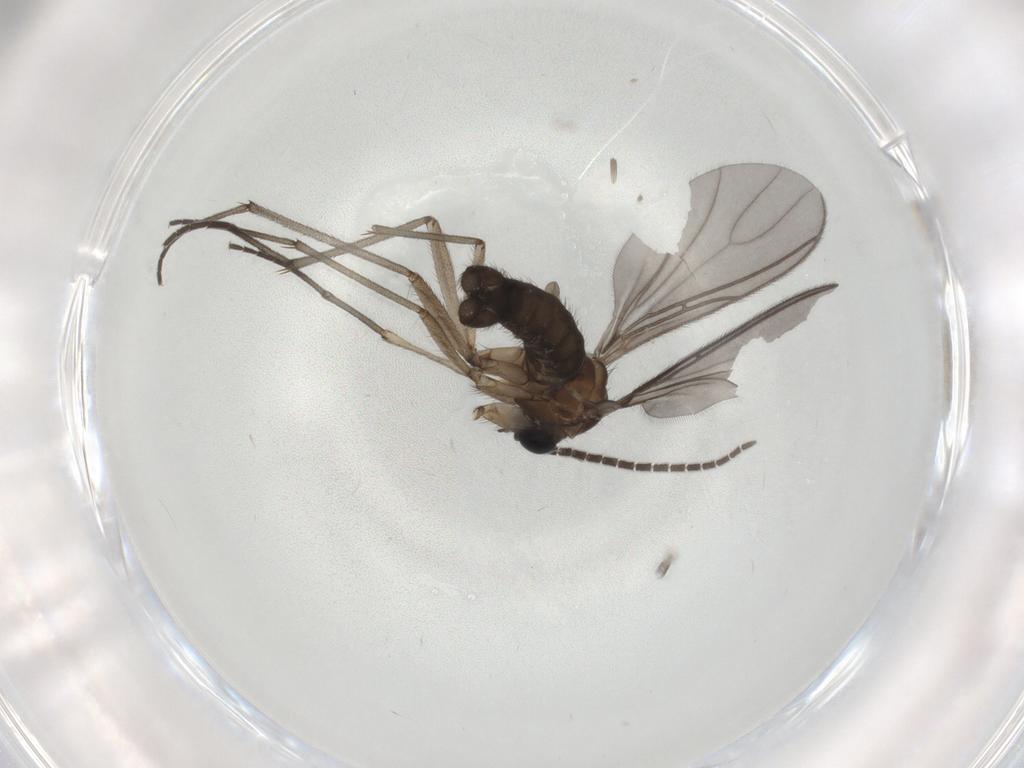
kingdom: Animalia
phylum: Arthropoda
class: Insecta
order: Diptera
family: Sciaridae
